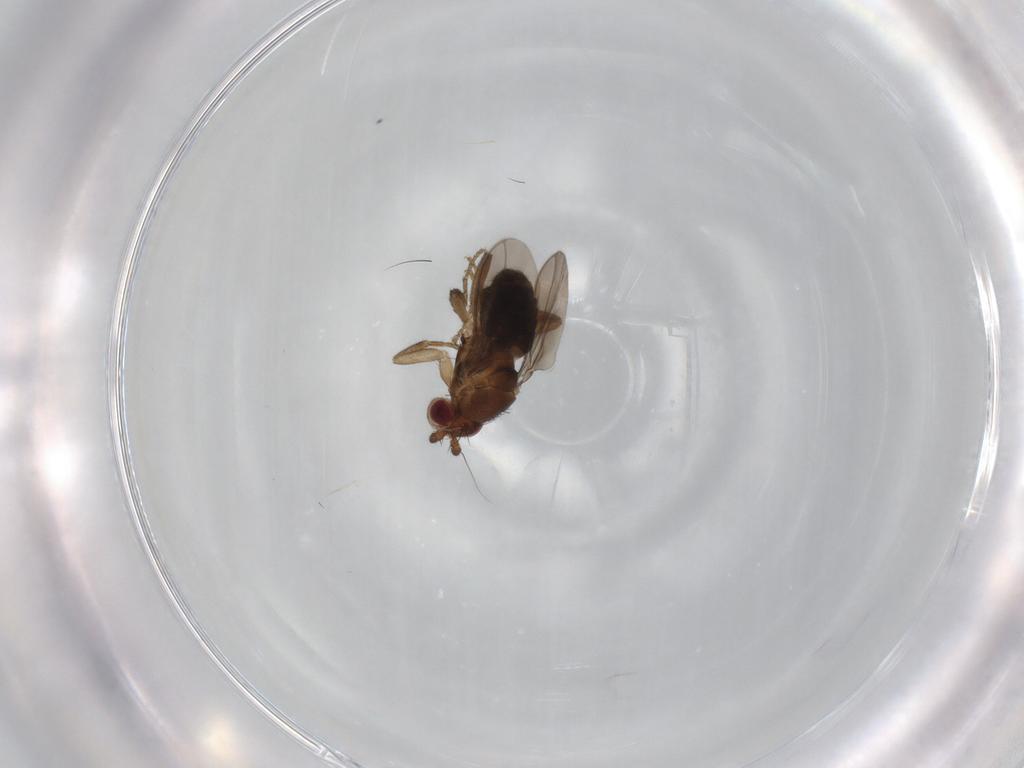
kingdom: Animalia
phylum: Arthropoda
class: Insecta
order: Diptera
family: Sphaeroceridae
